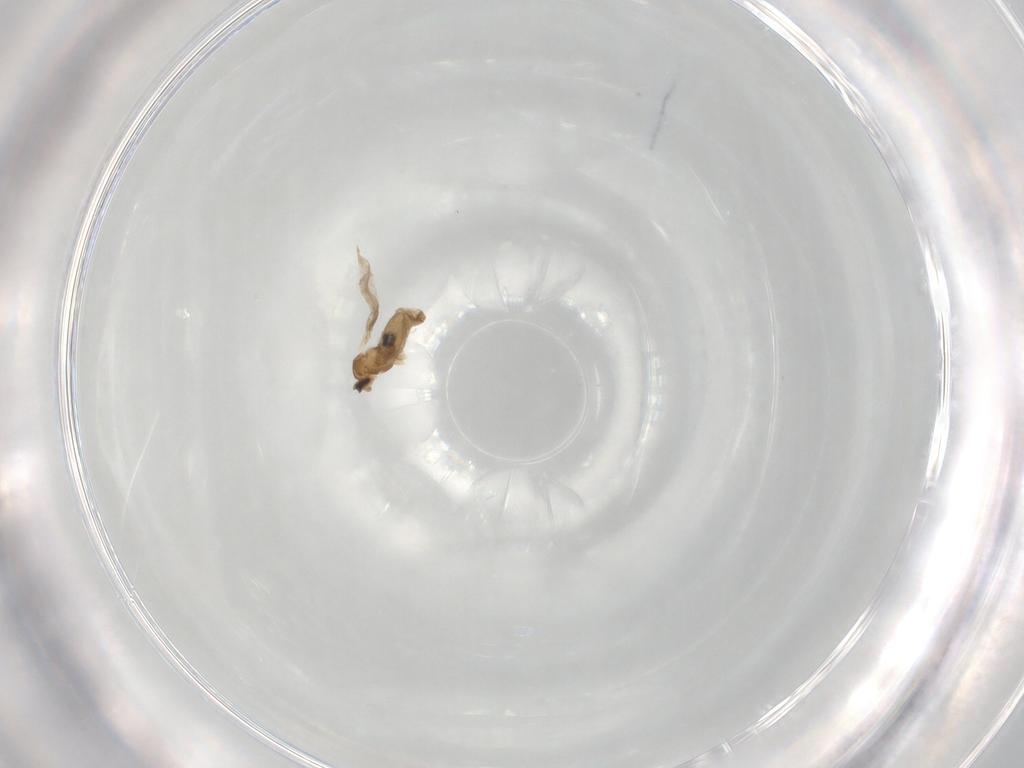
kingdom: Animalia
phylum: Arthropoda
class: Insecta
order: Diptera
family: Cecidomyiidae
